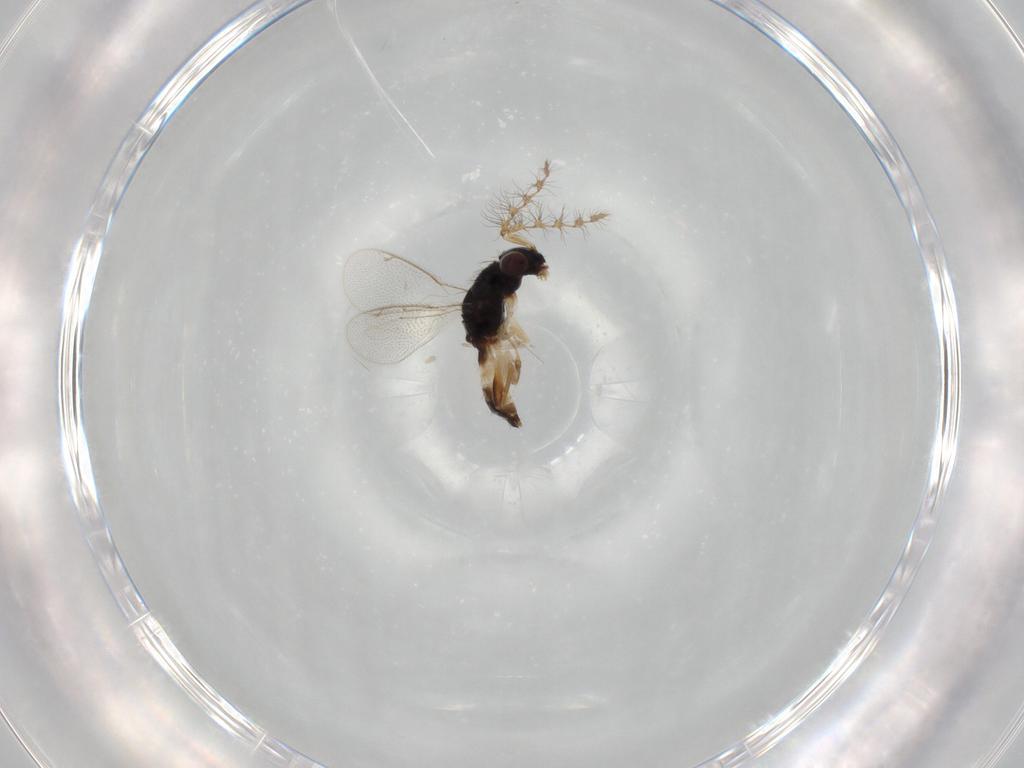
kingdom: Animalia
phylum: Arthropoda
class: Insecta
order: Hymenoptera
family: Eulophidae
